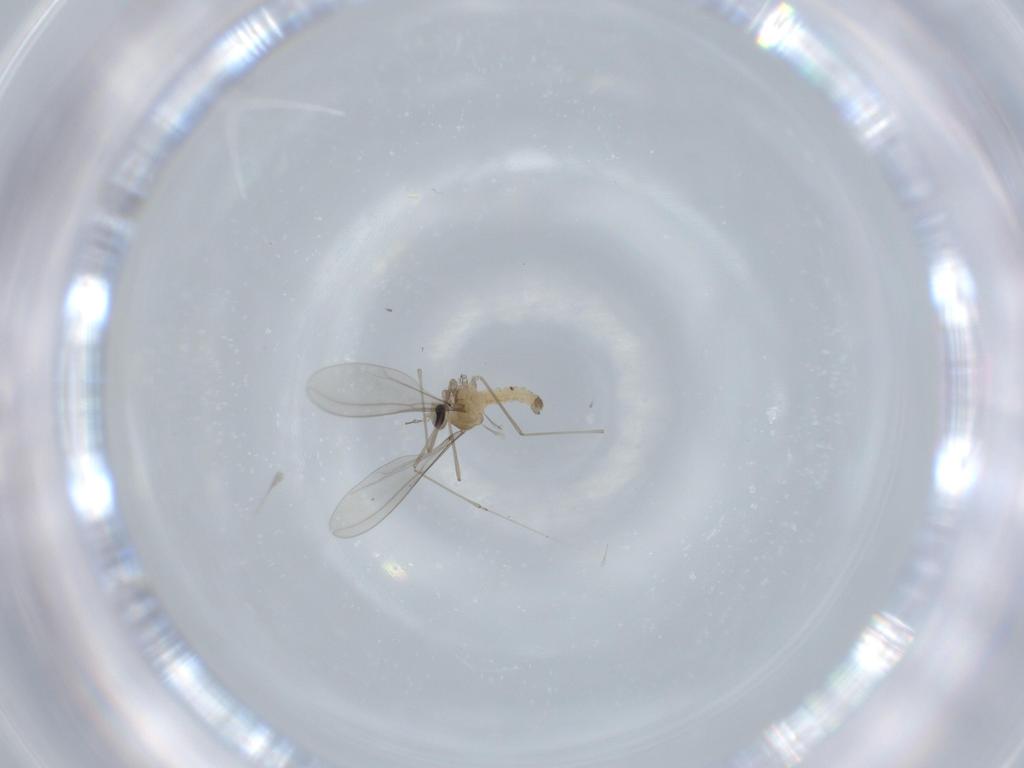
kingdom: Animalia
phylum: Arthropoda
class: Insecta
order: Diptera
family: Cecidomyiidae
